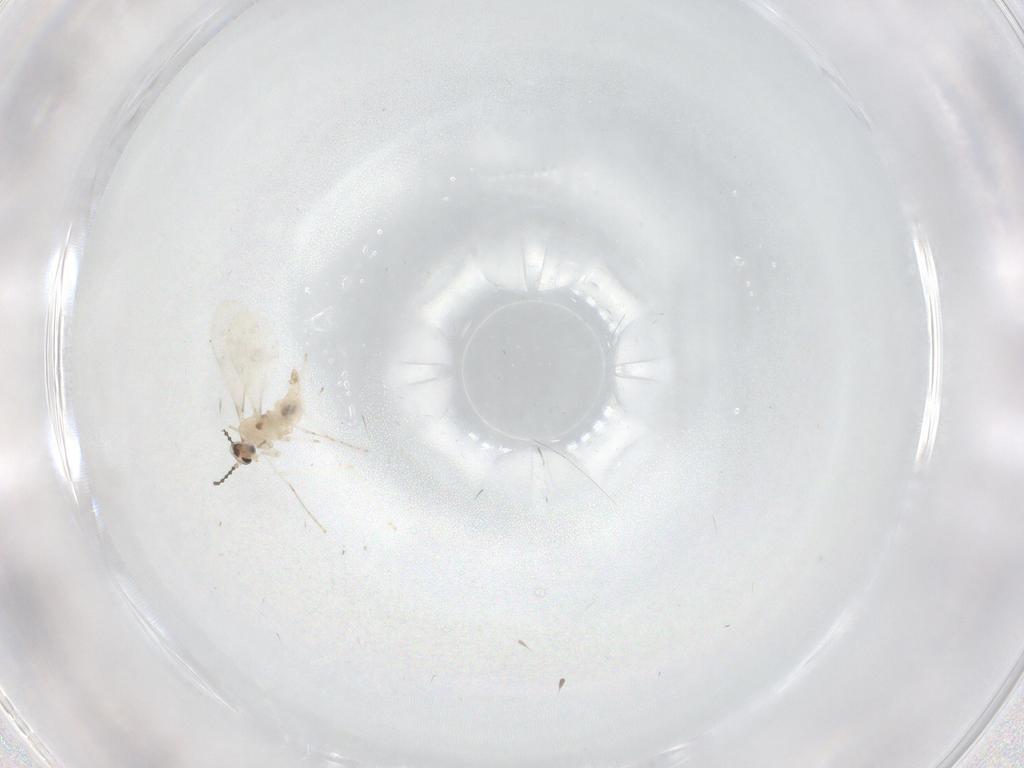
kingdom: Animalia
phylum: Arthropoda
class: Insecta
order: Diptera
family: Cecidomyiidae
